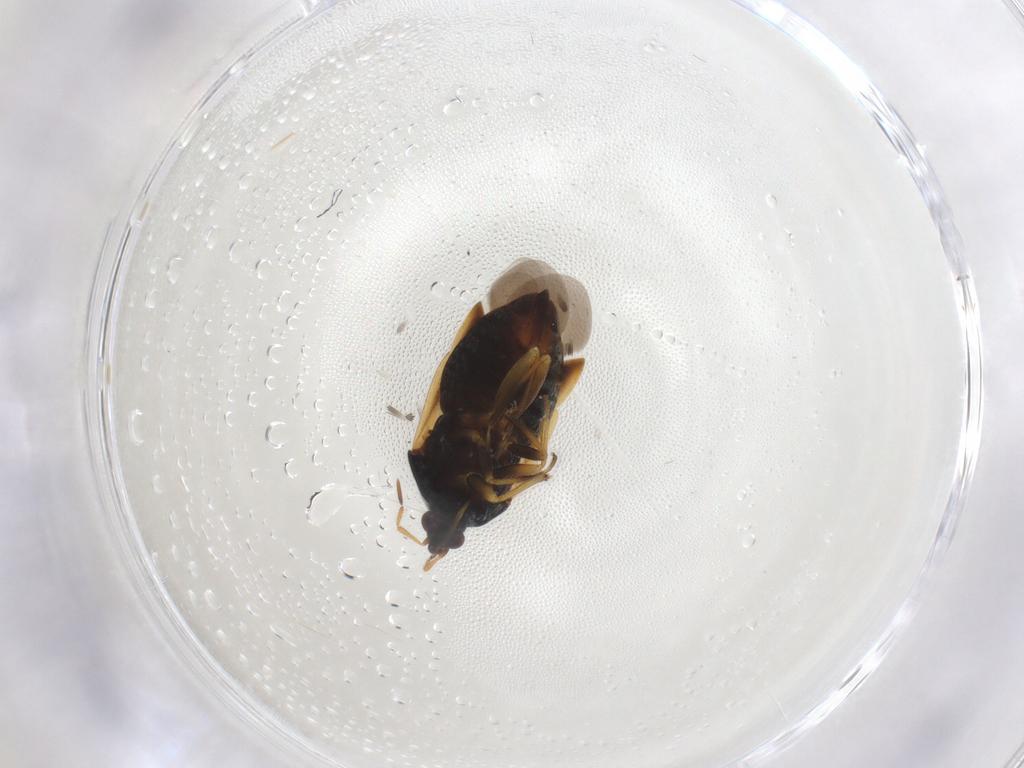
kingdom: Animalia
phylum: Arthropoda
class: Insecta
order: Hemiptera
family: Anthocoridae
